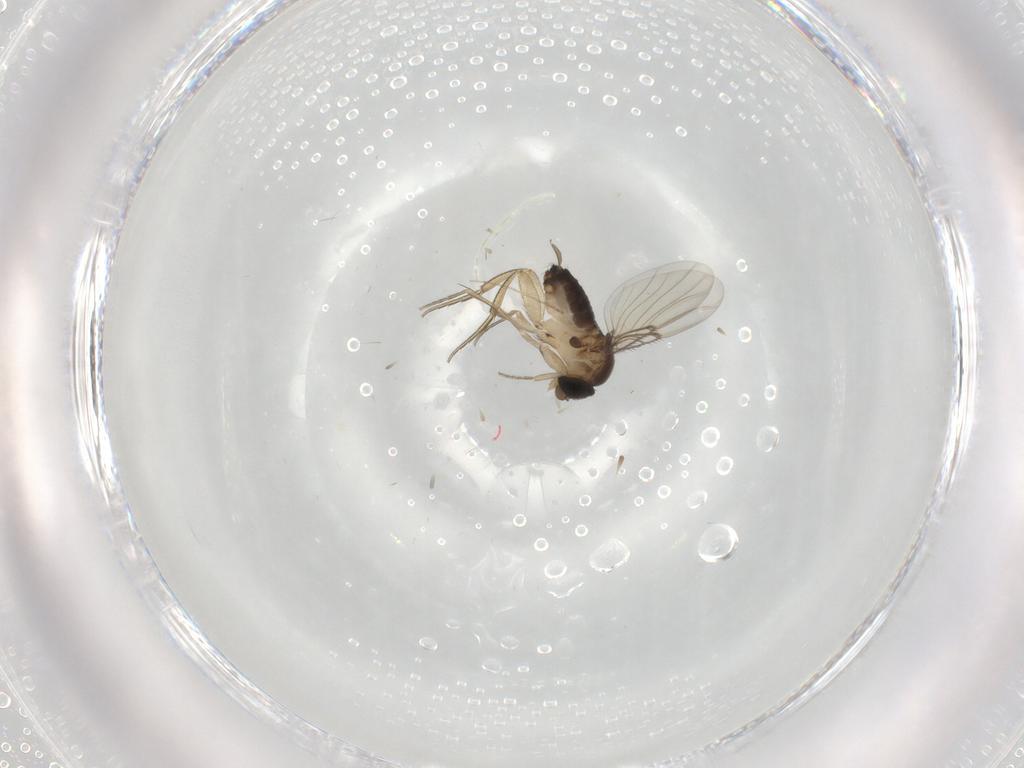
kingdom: Animalia
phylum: Arthropoda
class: Insecta
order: Diptera
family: Cecidomyiidae
